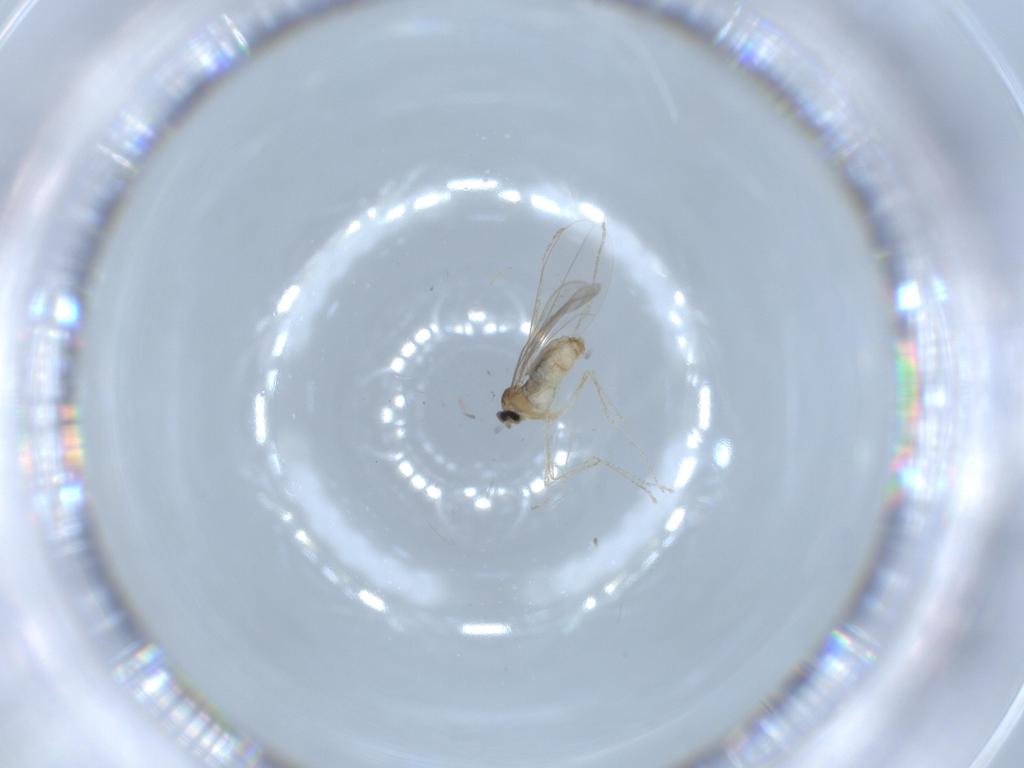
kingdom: Animalia
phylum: Arthropoda
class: Insecta
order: Diptera
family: Cecidomyiidae
